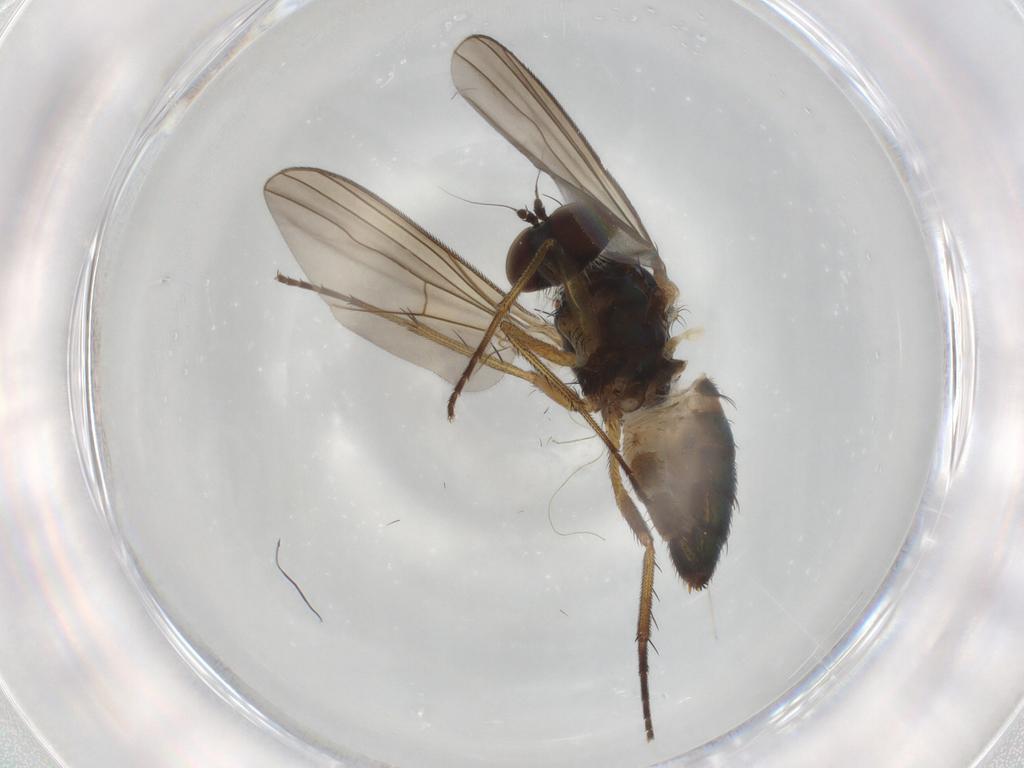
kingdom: Animalia
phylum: Arthropoda
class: Insecta
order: Diptera
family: Dolichopodidae
